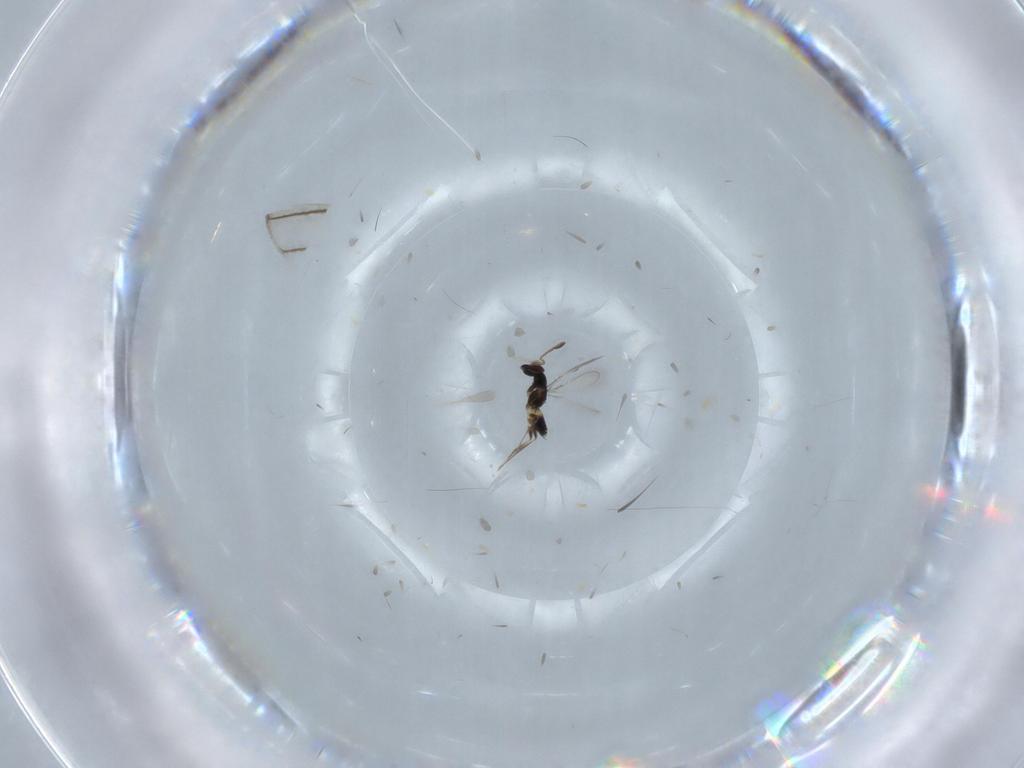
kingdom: Animalia
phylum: Arthropoda
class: Insecta
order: Hymenoptera
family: Mymaridae
